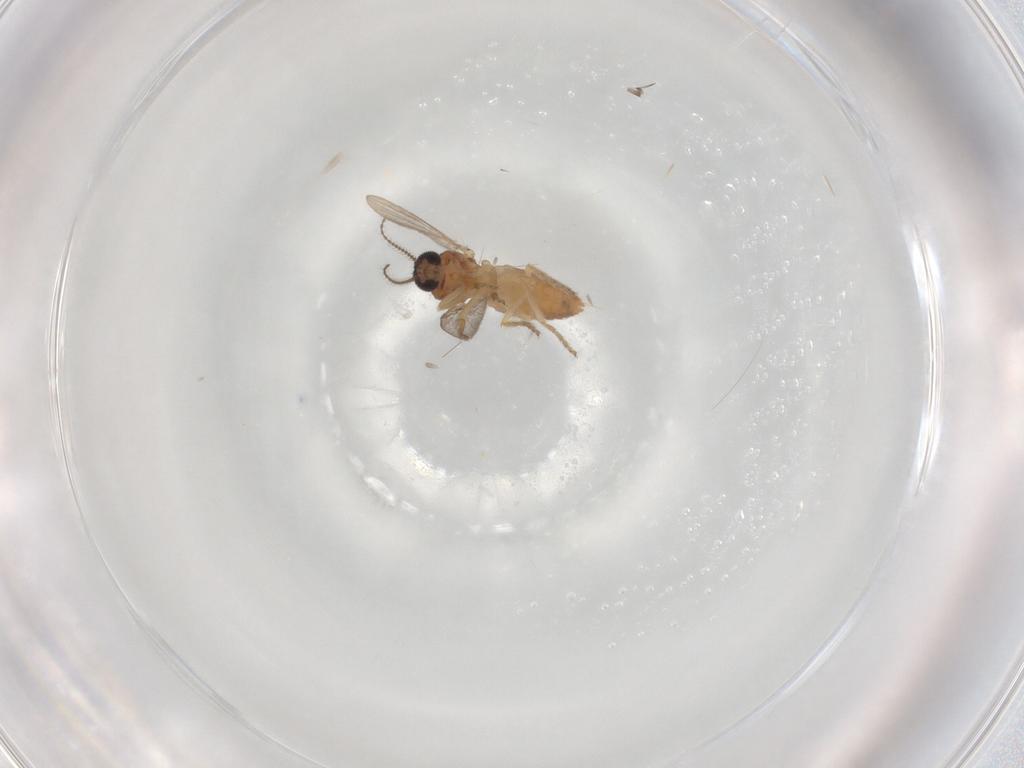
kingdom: Animalia
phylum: Arthropoda
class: Insecta
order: Diptera
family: Ceratopogonidae
